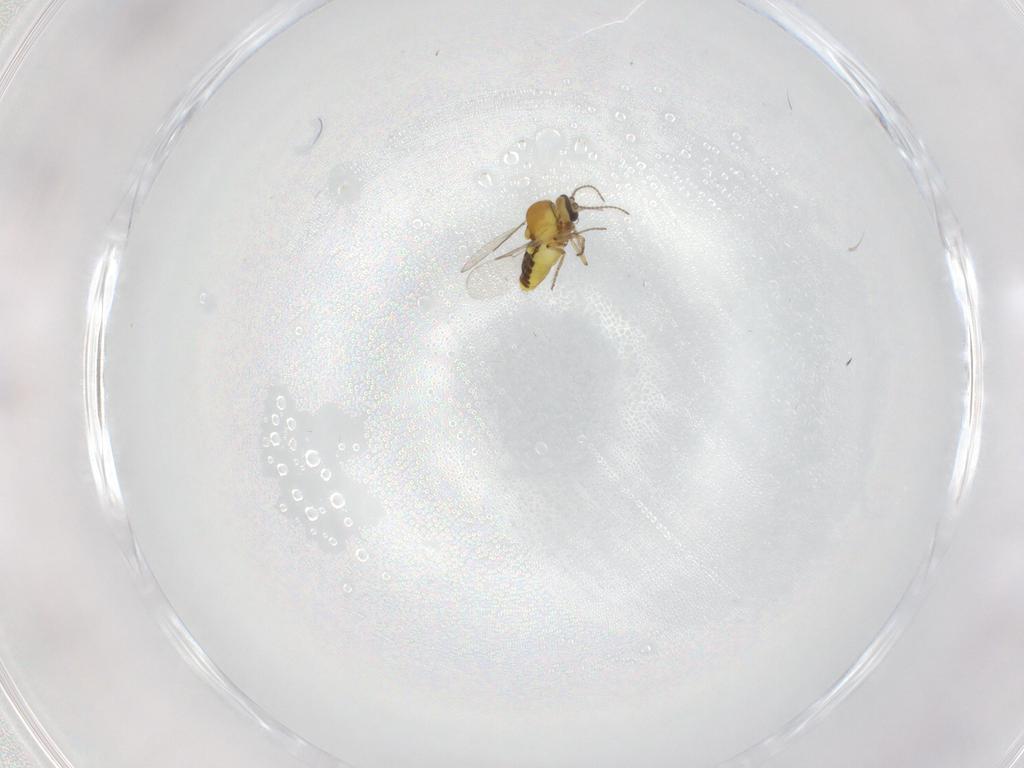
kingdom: Animalia
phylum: Arthropoda
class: Insecta
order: Diptera
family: Ceratopogonidae
